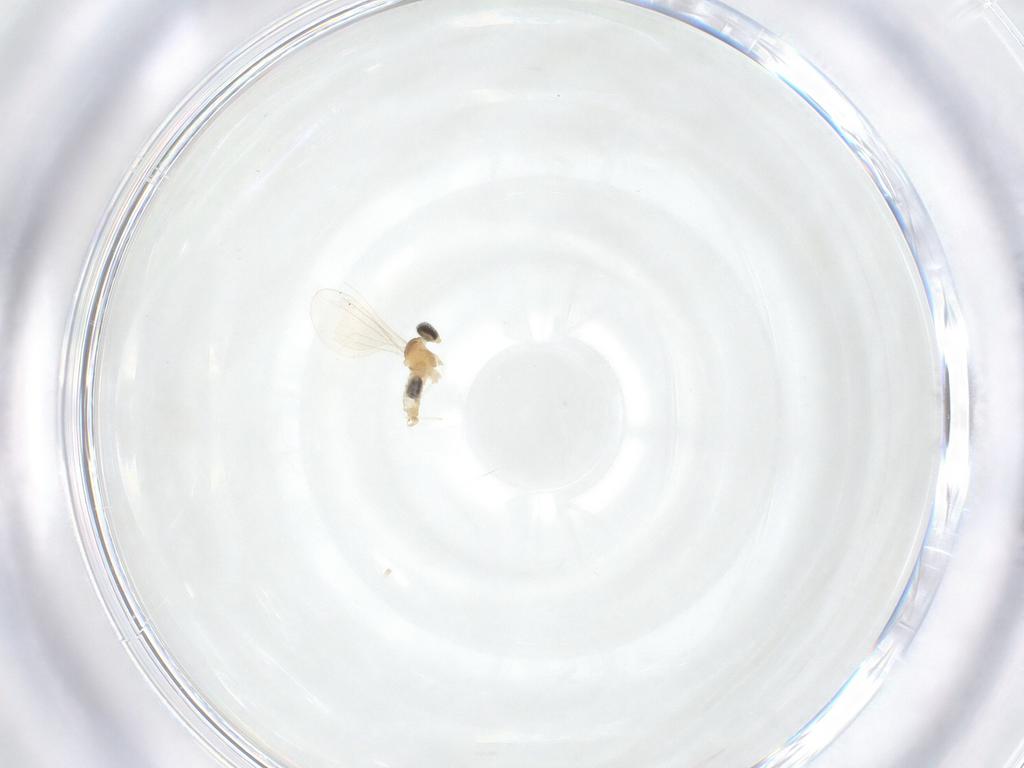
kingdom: Animalia
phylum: Arthropoda
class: Insecta
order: Diptera
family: Cecidomyiidae
